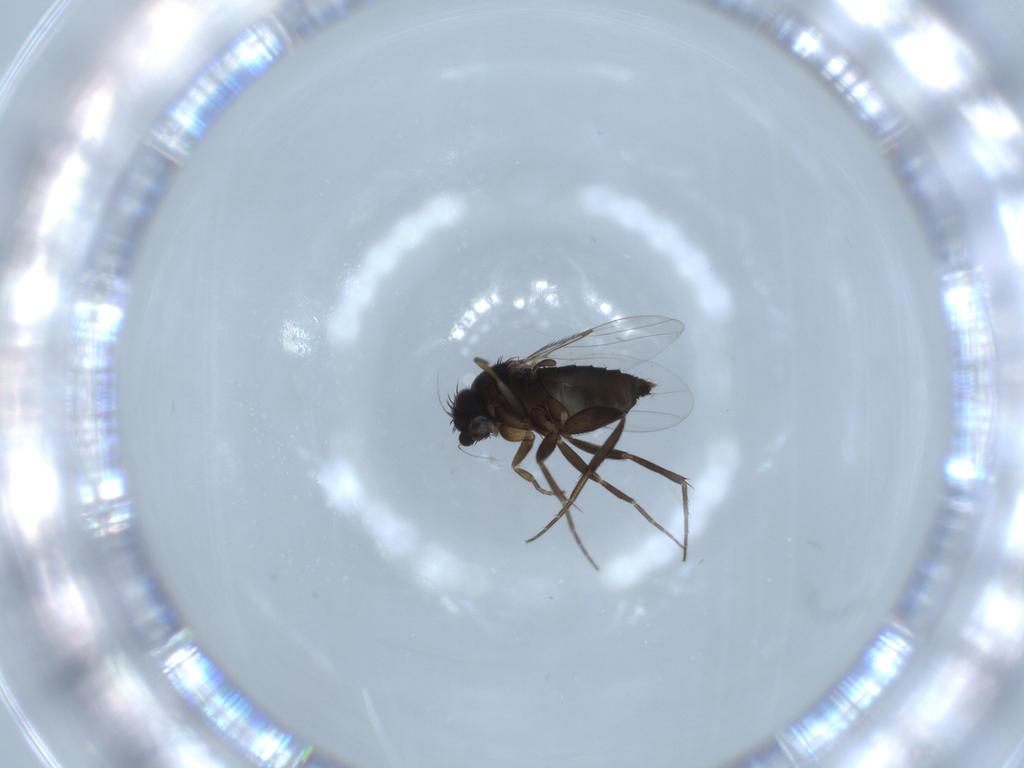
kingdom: Animalia
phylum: Arthropoda
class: Insecta
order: Diptera
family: Phoridae
